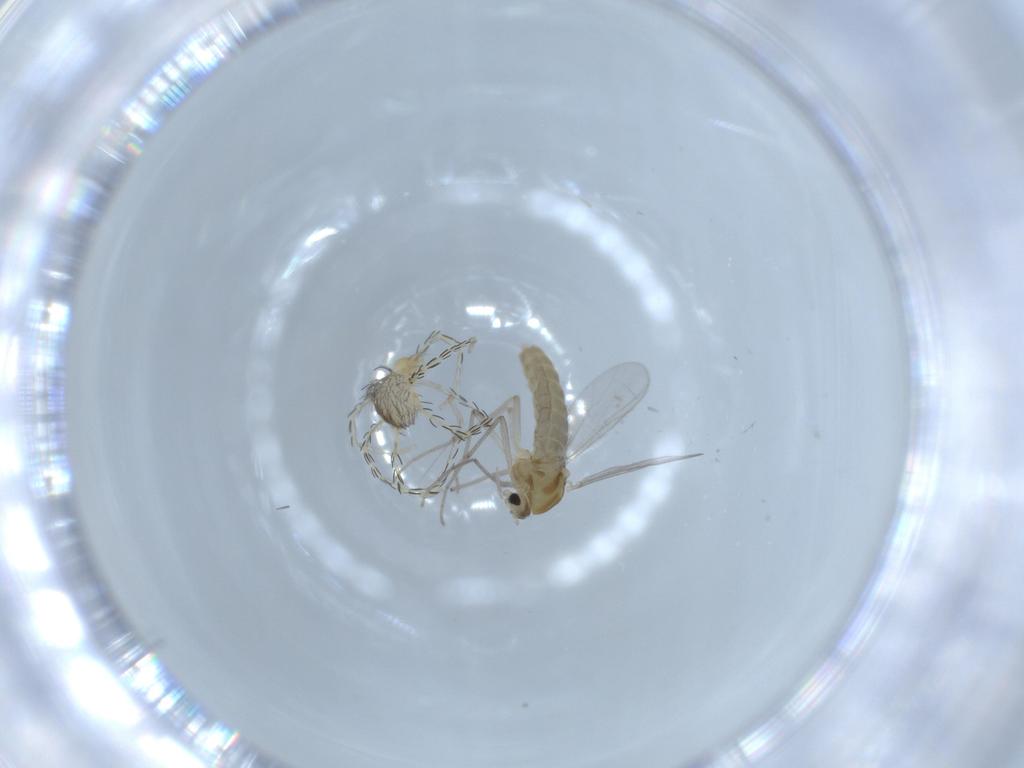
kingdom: Animalia
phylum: Arthropoda
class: Insecta
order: Diptera
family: Chironomidae
